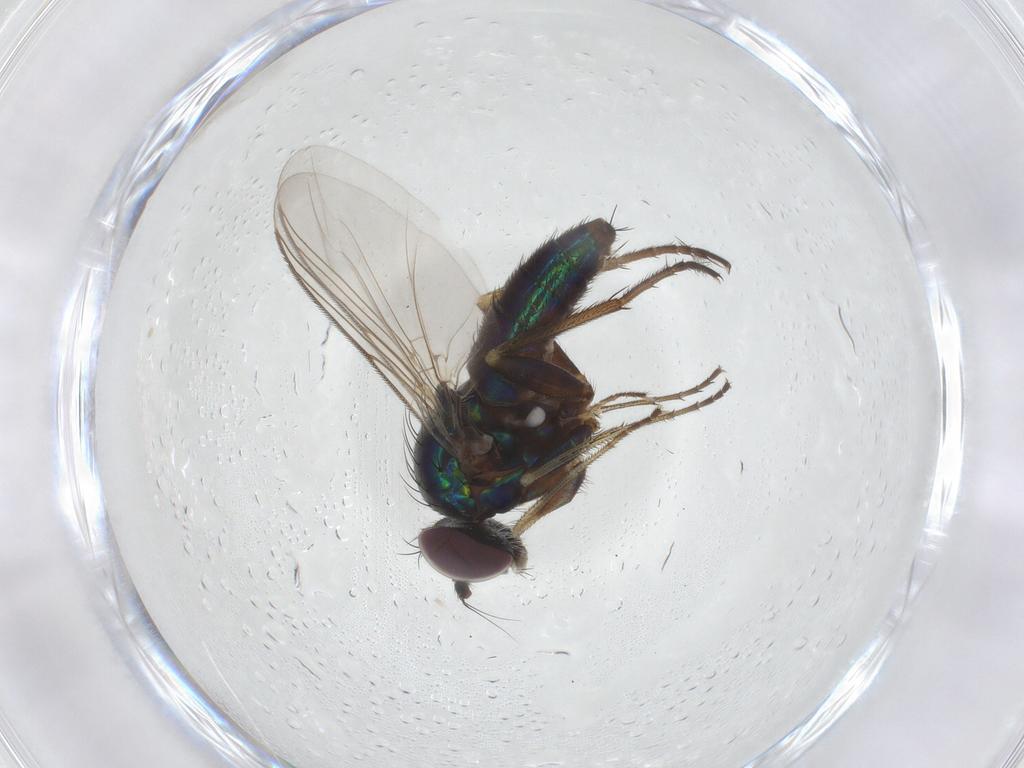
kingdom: Animalia
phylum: Arthropoda
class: Insecta
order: Diptera
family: Dolichopodidae
